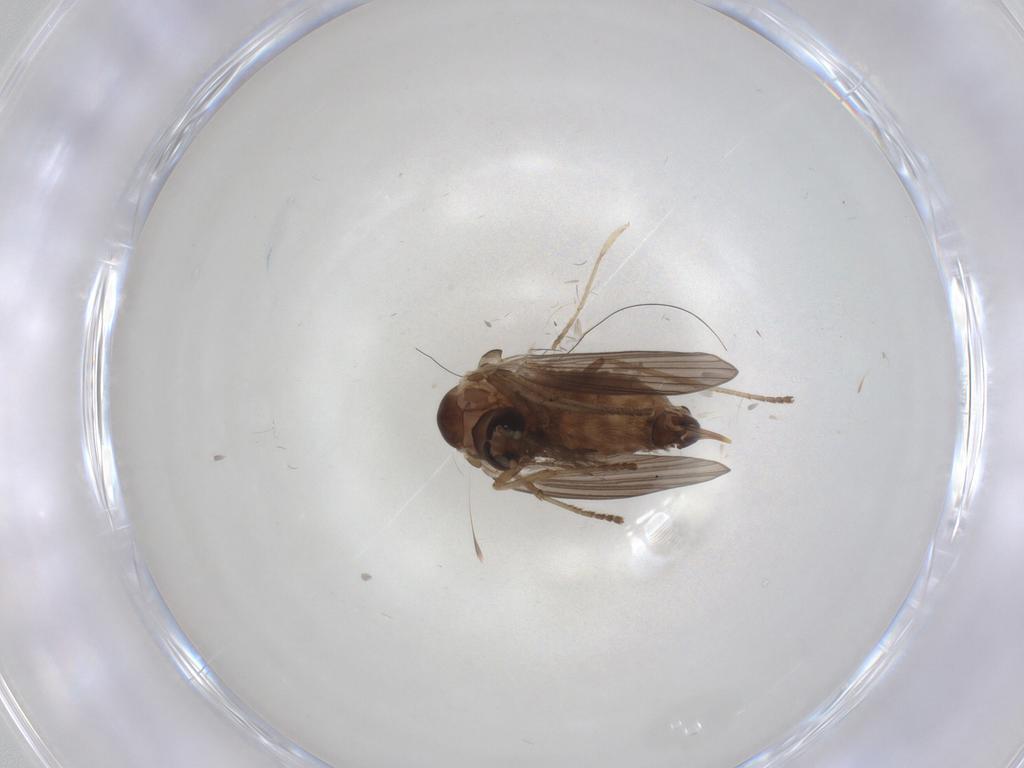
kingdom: Animalia
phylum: Arthropoda
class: Insecta
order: Diptera
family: Psychodidae
